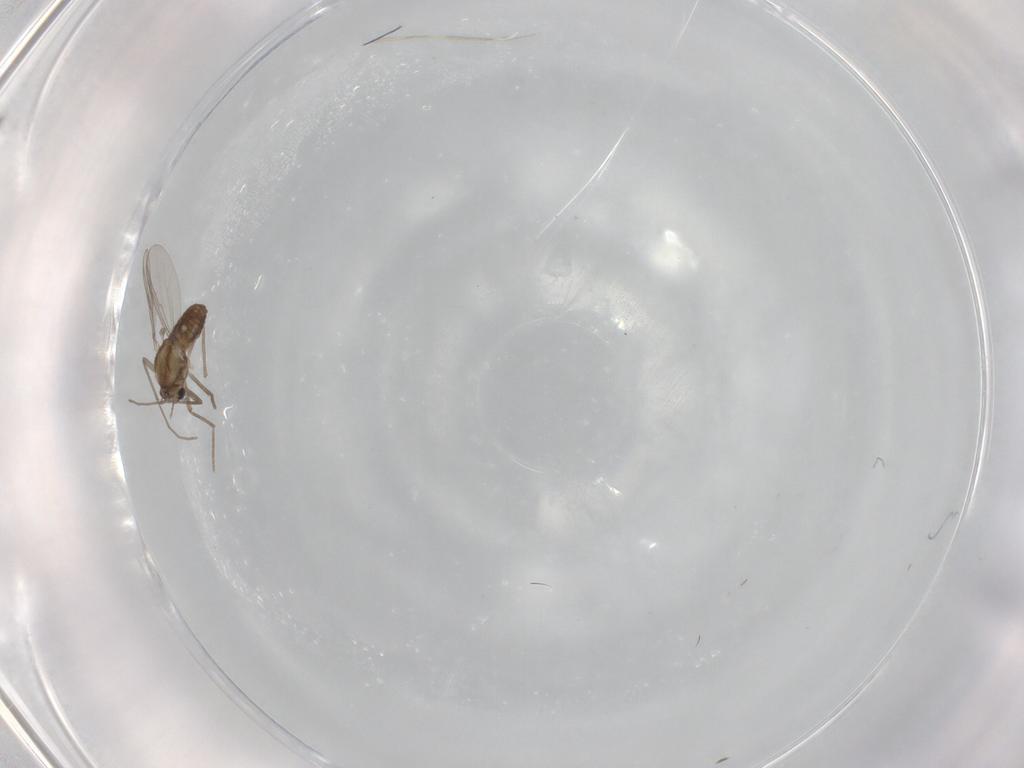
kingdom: Animalia
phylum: Arthropoda
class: Insecta
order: Diptera
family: Chironomidae
